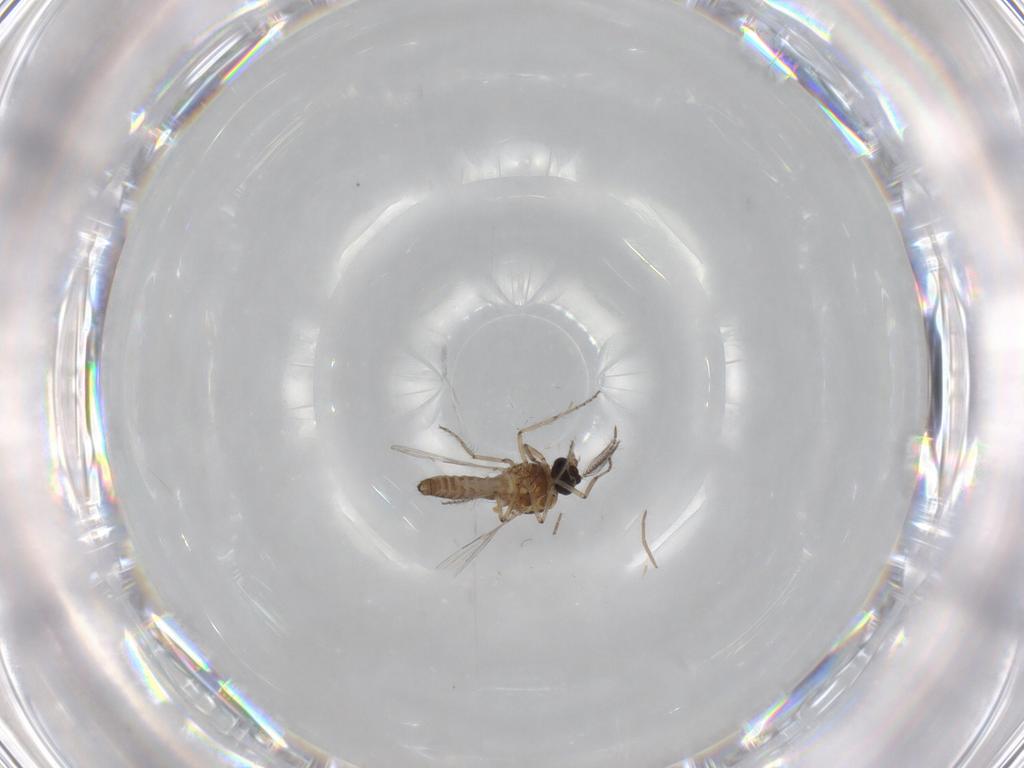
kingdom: Animalia
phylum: Arthropoda
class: Insecta
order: Diptera
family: Ceratopogonidae
